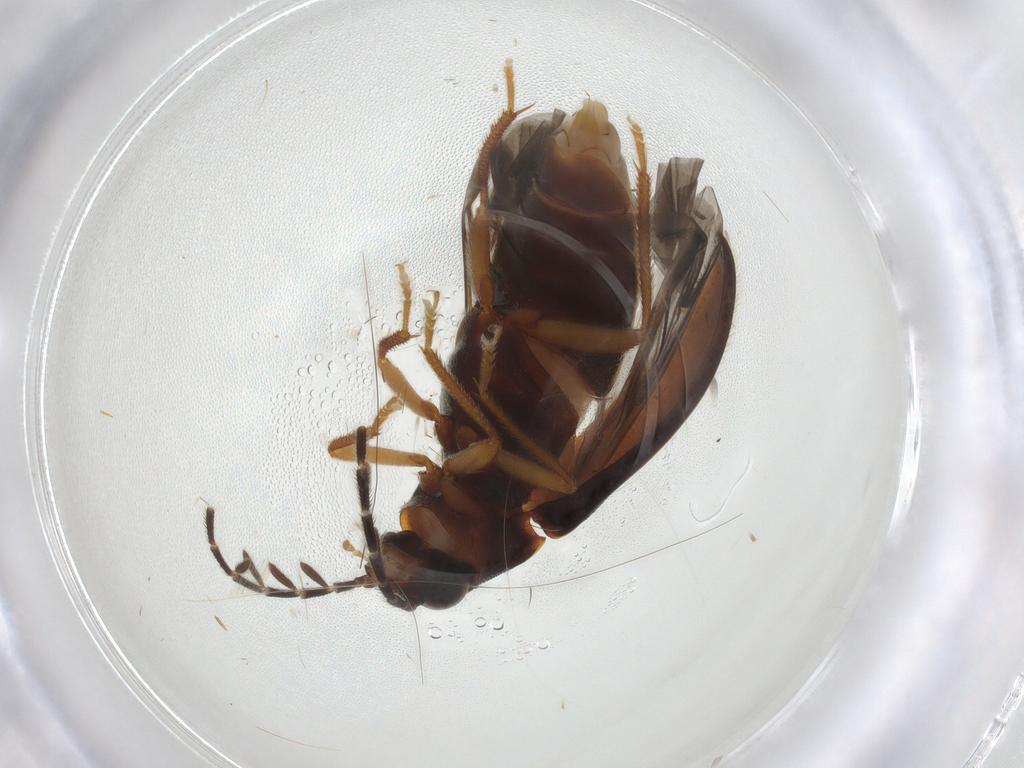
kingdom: Animalia
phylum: Arthropoda
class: Insecta
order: Coleoptera
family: Ptilodactylidae
